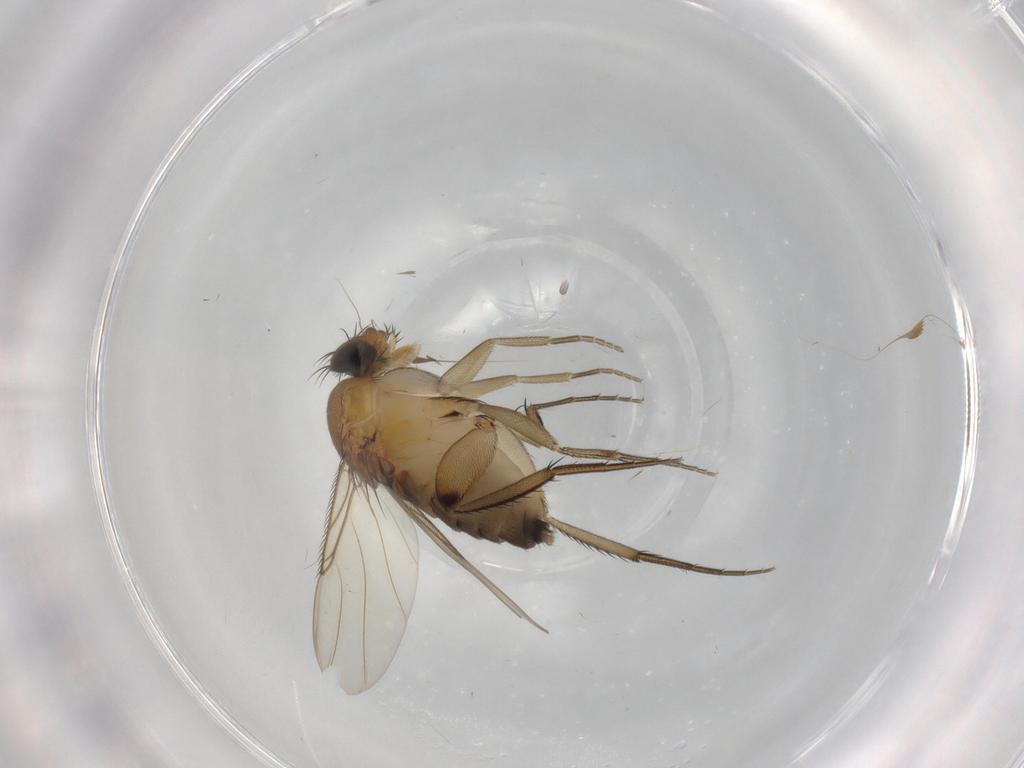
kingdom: Animalia
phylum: Arthropoda
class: Insecta
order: Diptera
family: Phoridae
